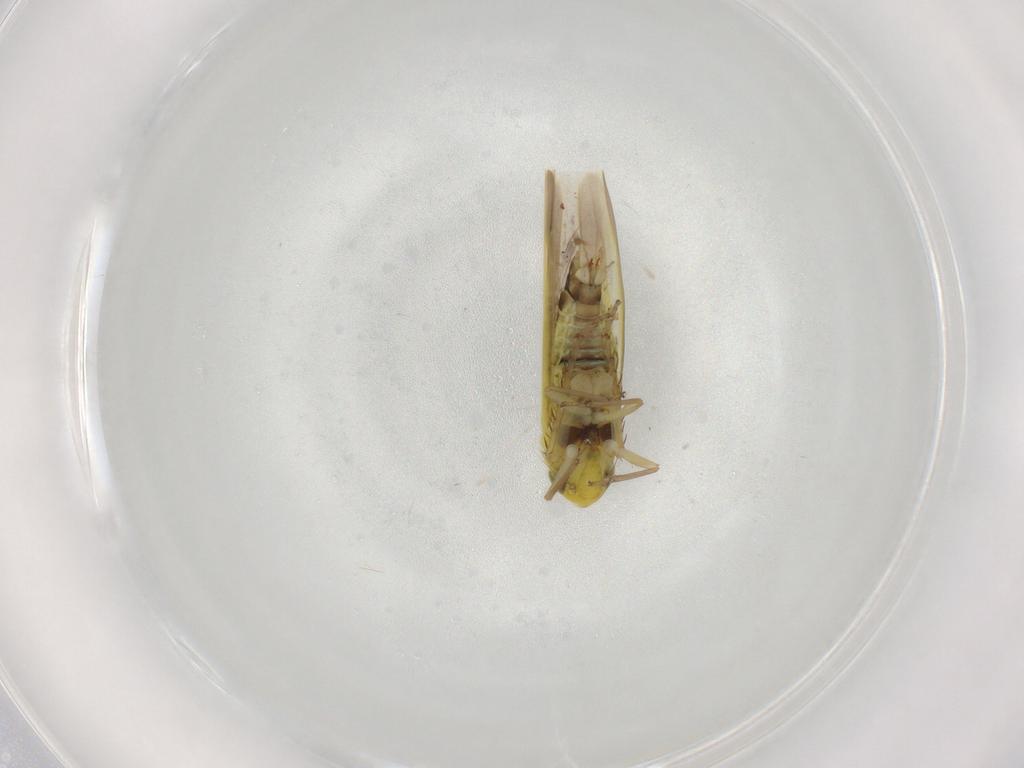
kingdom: Animalia
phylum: Arthropoda
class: Insecta
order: Hemiptera
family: Cicadellidae
